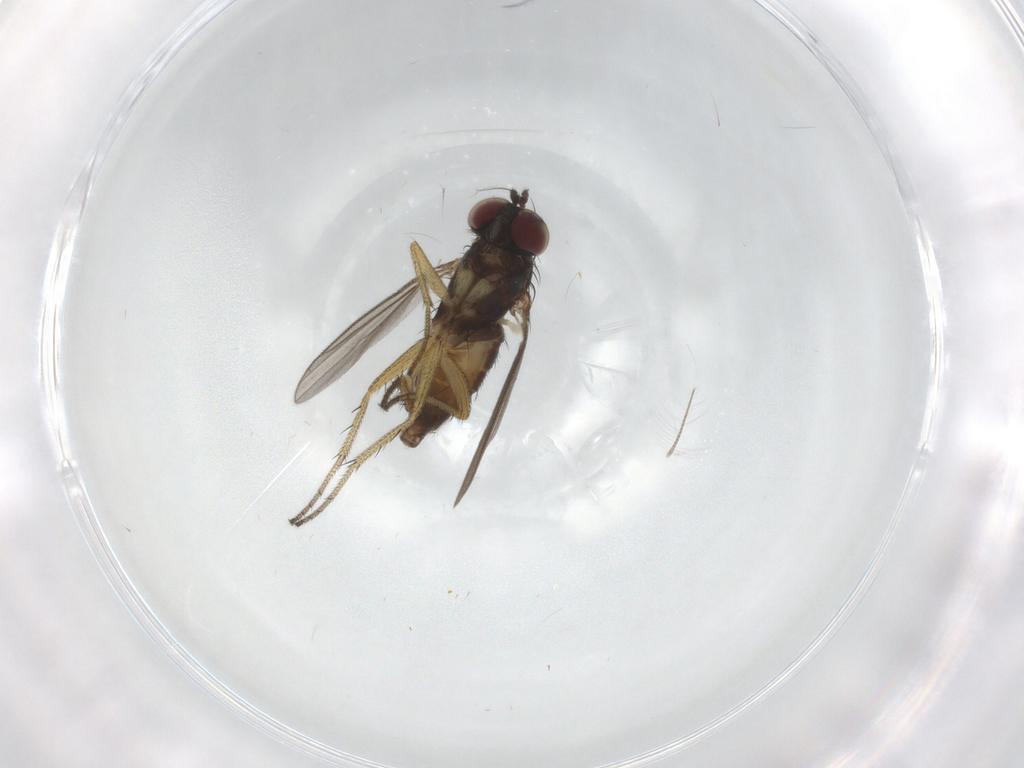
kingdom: Animalia
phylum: Arthropoda
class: Insecta
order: Diptera
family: Chironomidae
